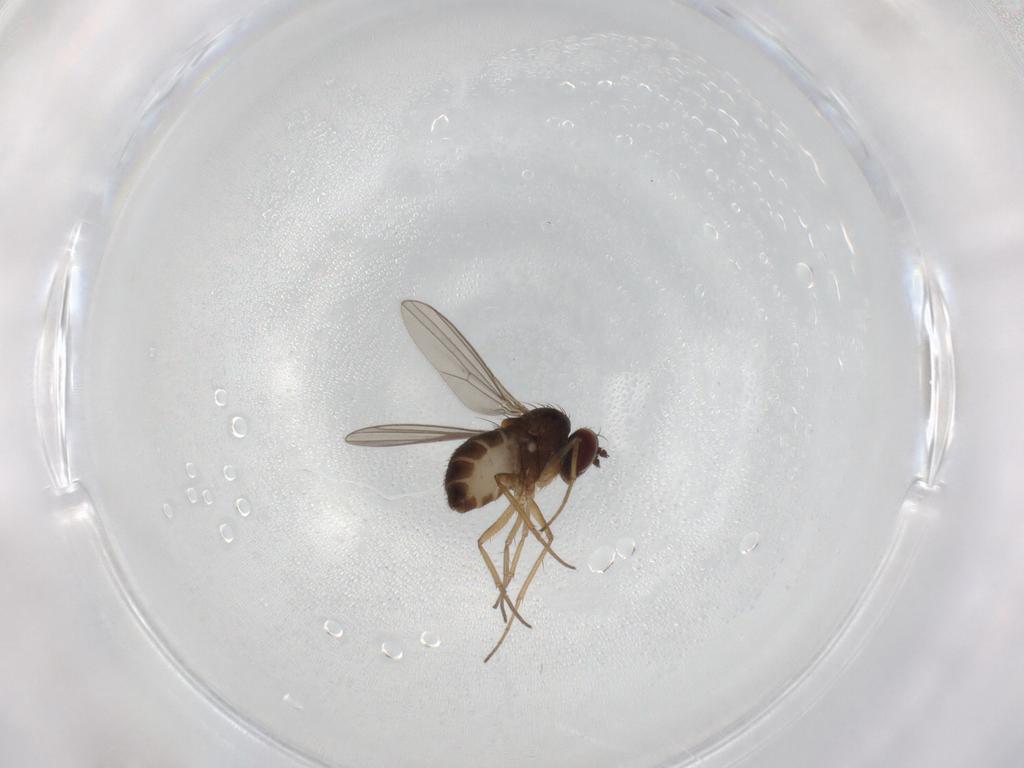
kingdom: Animalia
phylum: Arthropoda
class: Insecta
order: Diptera
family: Dolichopodidae
